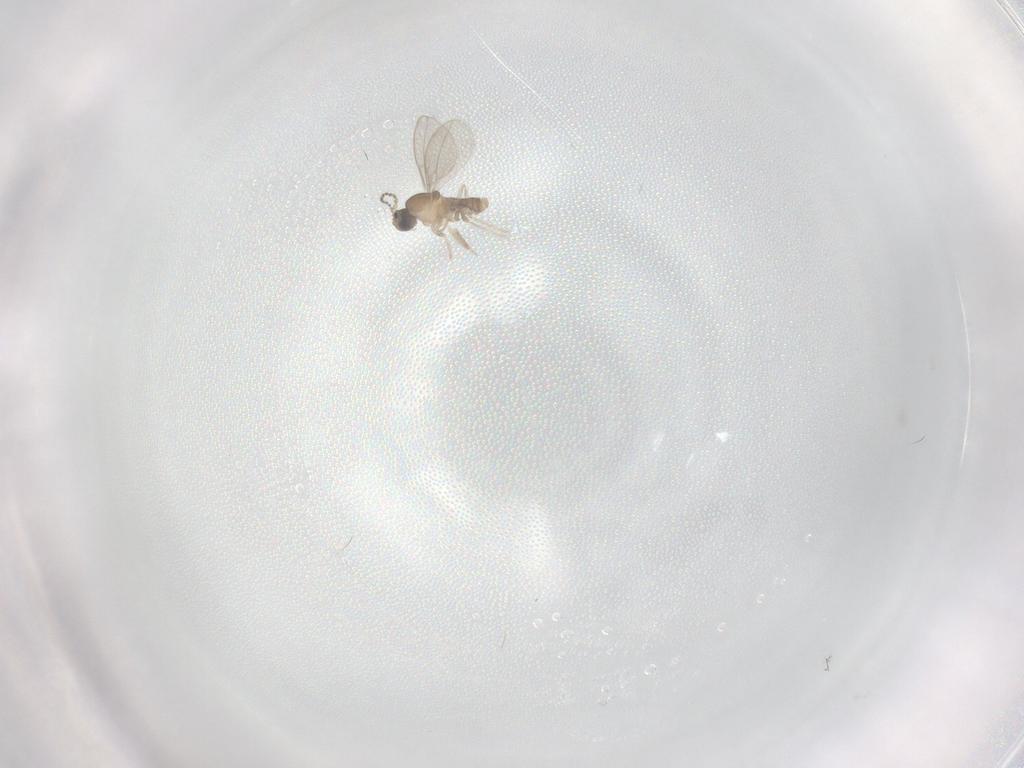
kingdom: Animalia
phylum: Arthropoda
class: Insecta
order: Diptera
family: Cecidomyiidae
